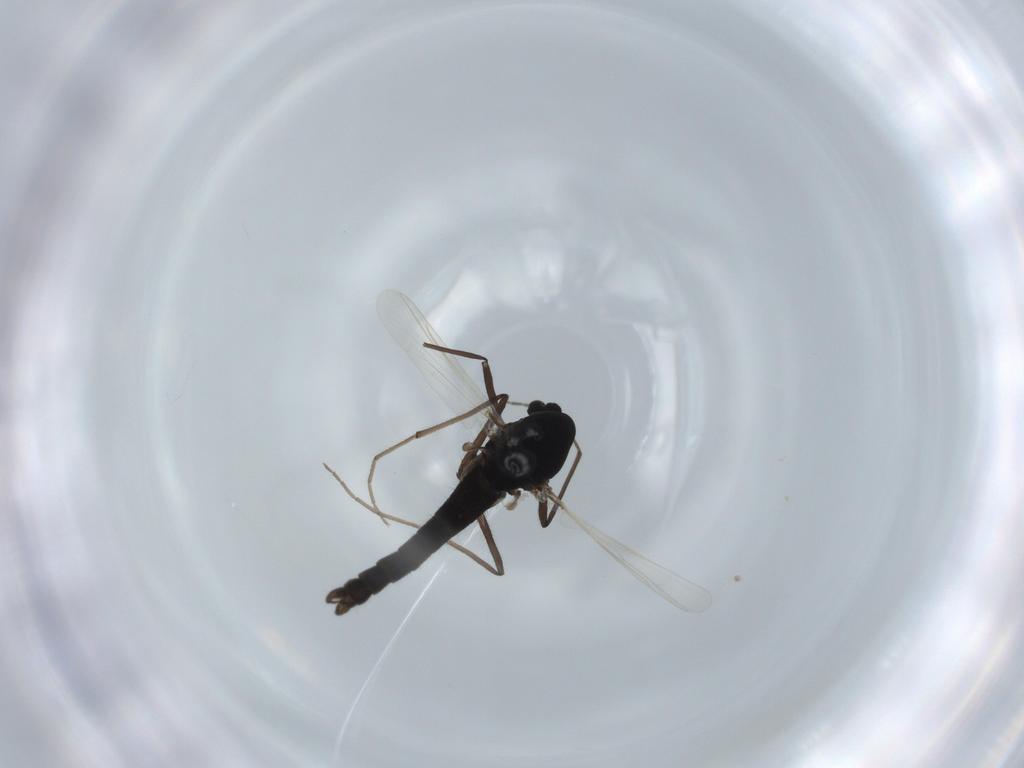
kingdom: Animalia
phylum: Arthropoda
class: Insecta
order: Diptera
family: Chironomidae
